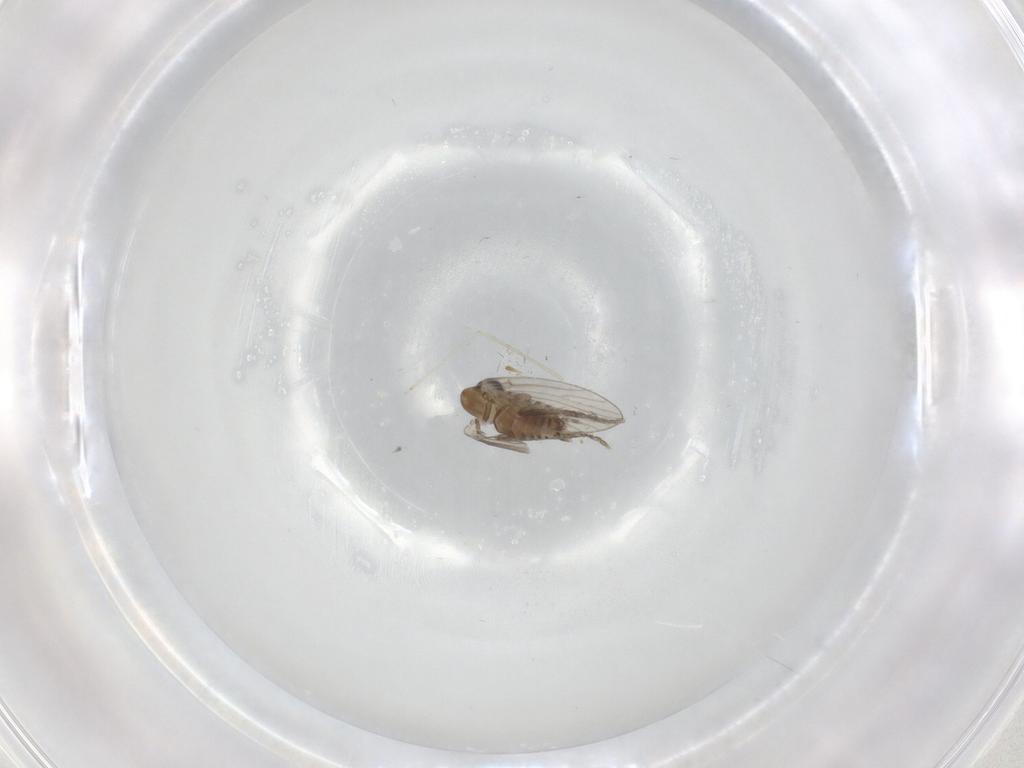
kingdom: Animalia
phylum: Arthropoda
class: Insecta
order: Diptera
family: Cecidomyiidae
